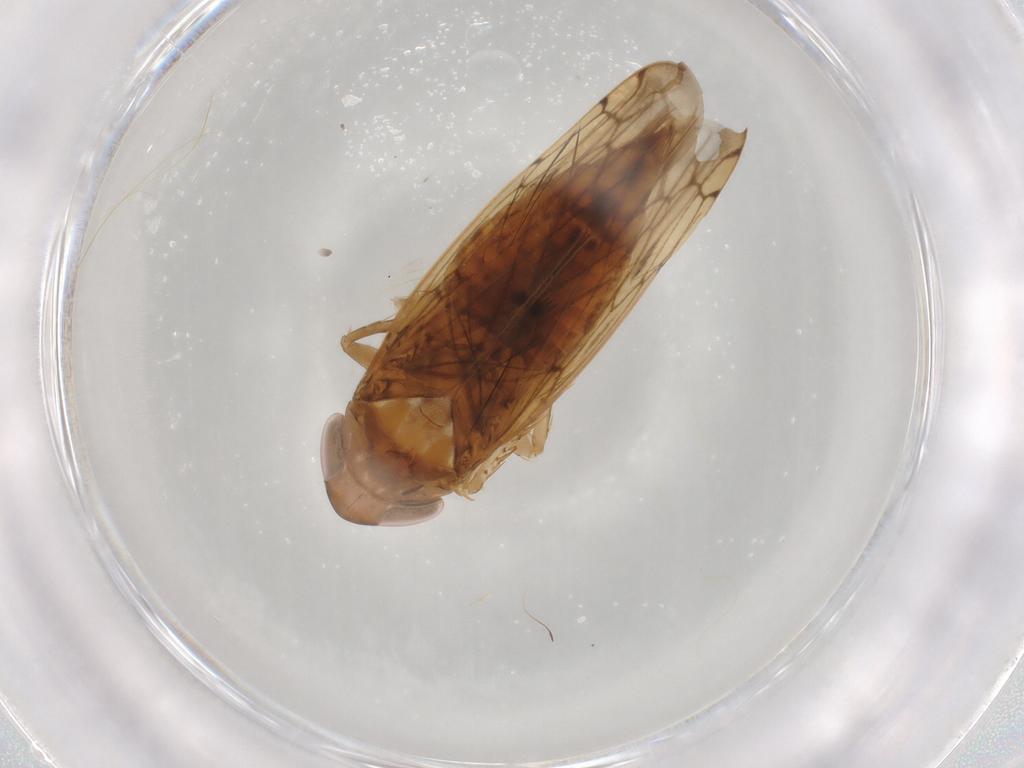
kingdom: Animalia
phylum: Arthropoda
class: Insecta
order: Hemiptera
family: Cicadellidae
